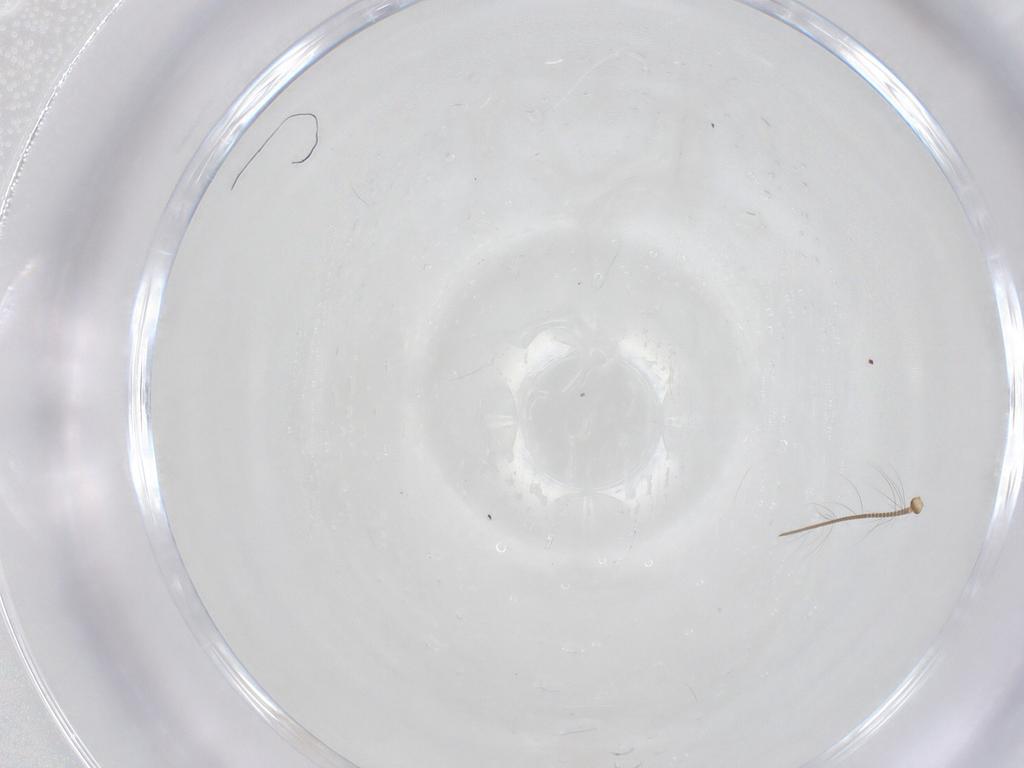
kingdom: Animalia
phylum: Arthropoda
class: Insecta
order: Lepidoptera
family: Cosmopterigidae
